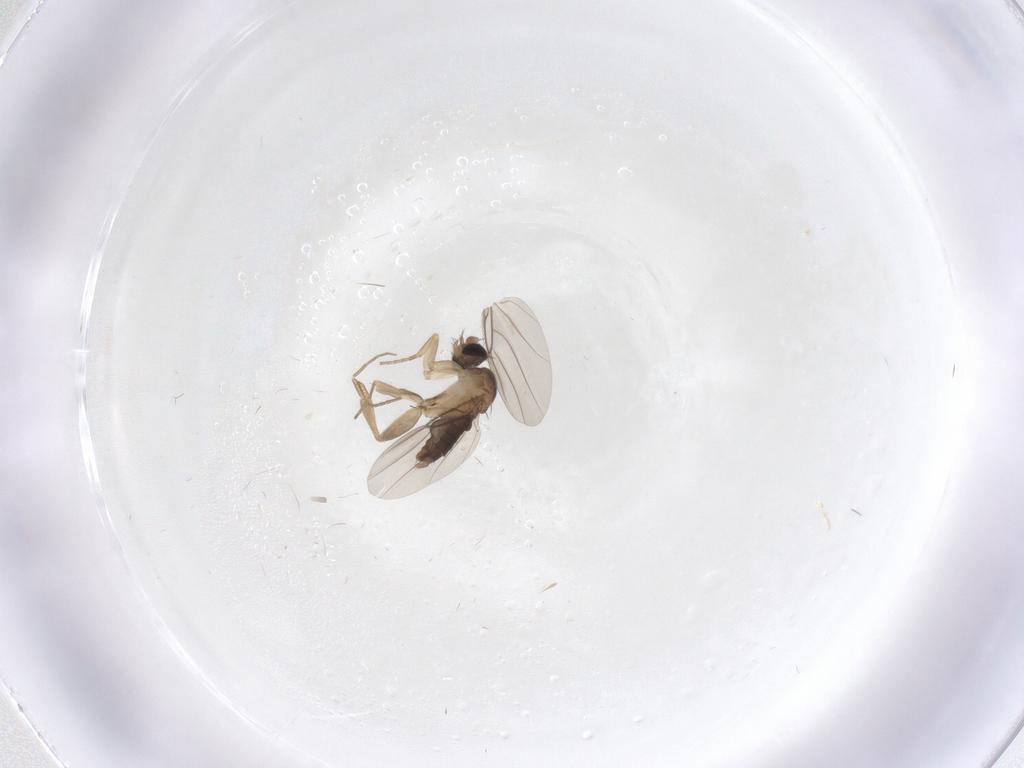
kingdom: Animalia
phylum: Arthropoda
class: Insecta
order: Diptera
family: Phoridae
